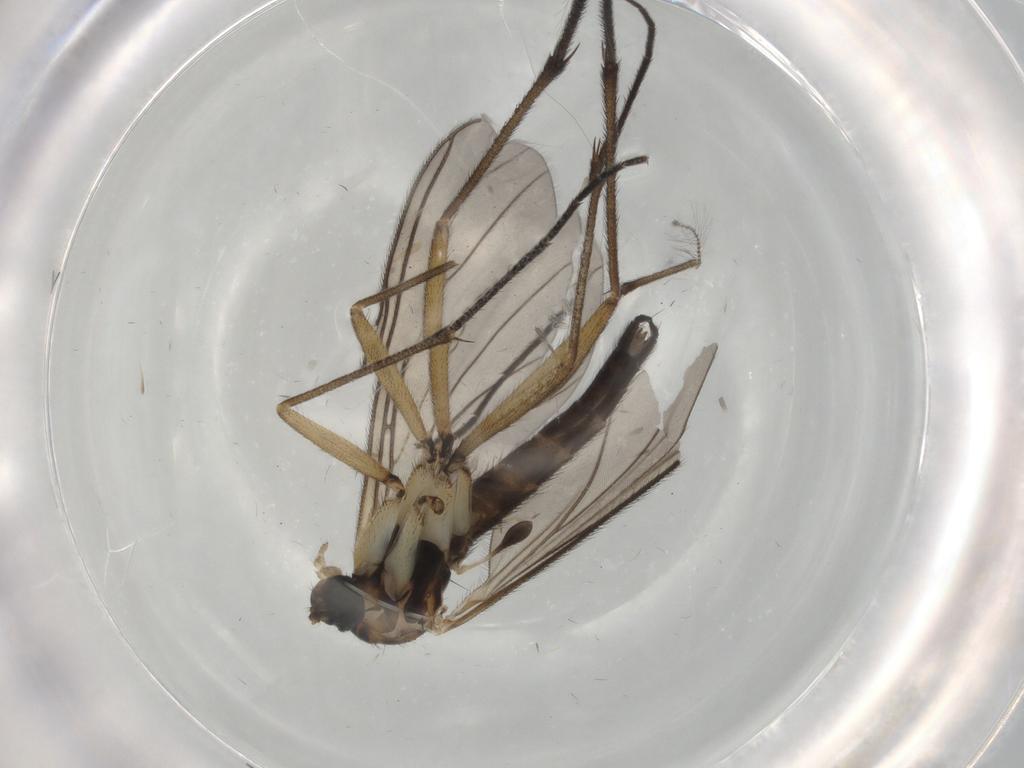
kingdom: Animalia
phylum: Arthropoda
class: Insecta
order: Diptera
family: Sciaridae
